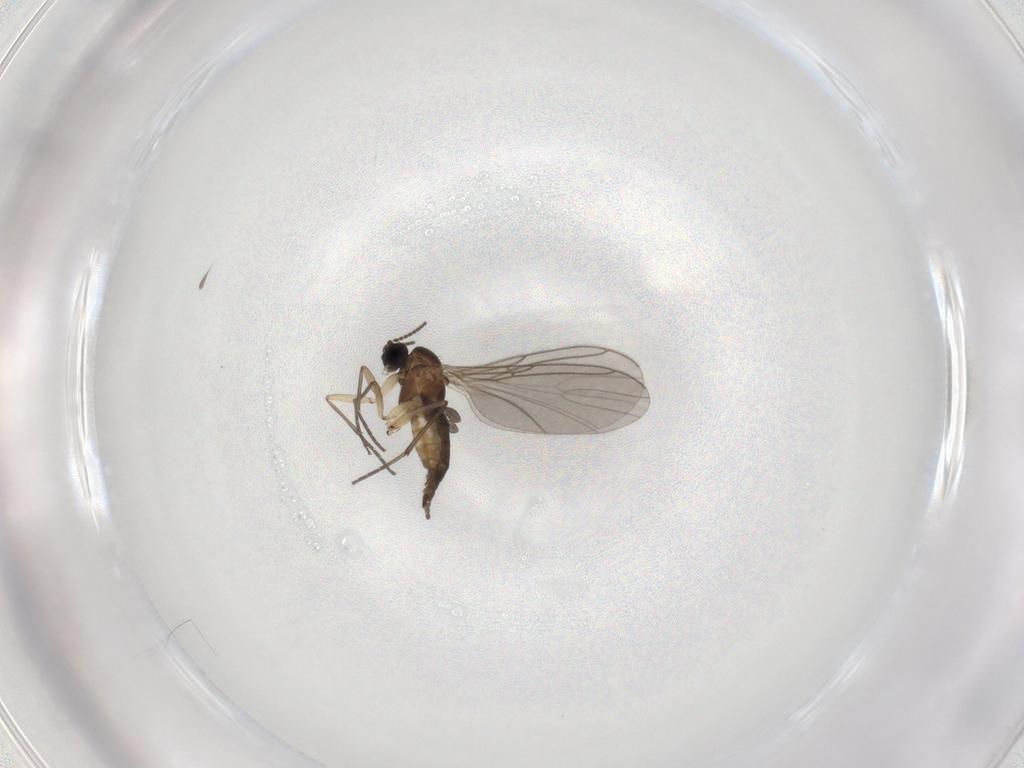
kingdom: Animalia
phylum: Arthropoda
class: Insecta
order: Diptera
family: Sciaridae
